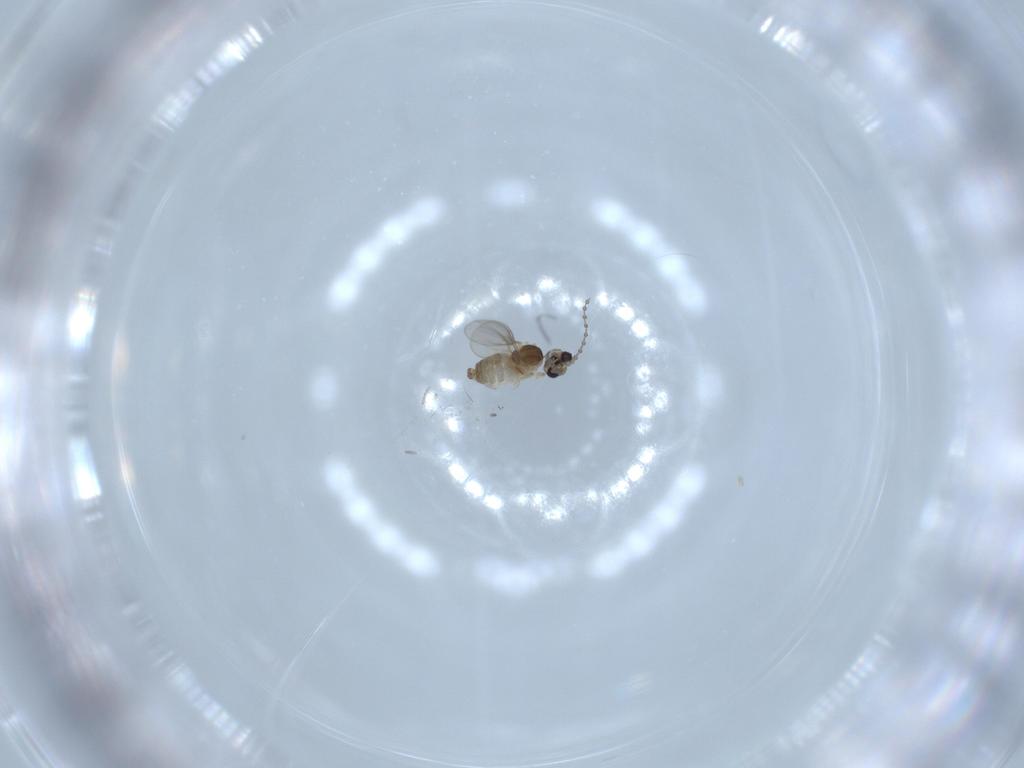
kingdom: Animalia
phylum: Arthropoda
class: Insecta
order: Diptera
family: Cecidomyiidae
